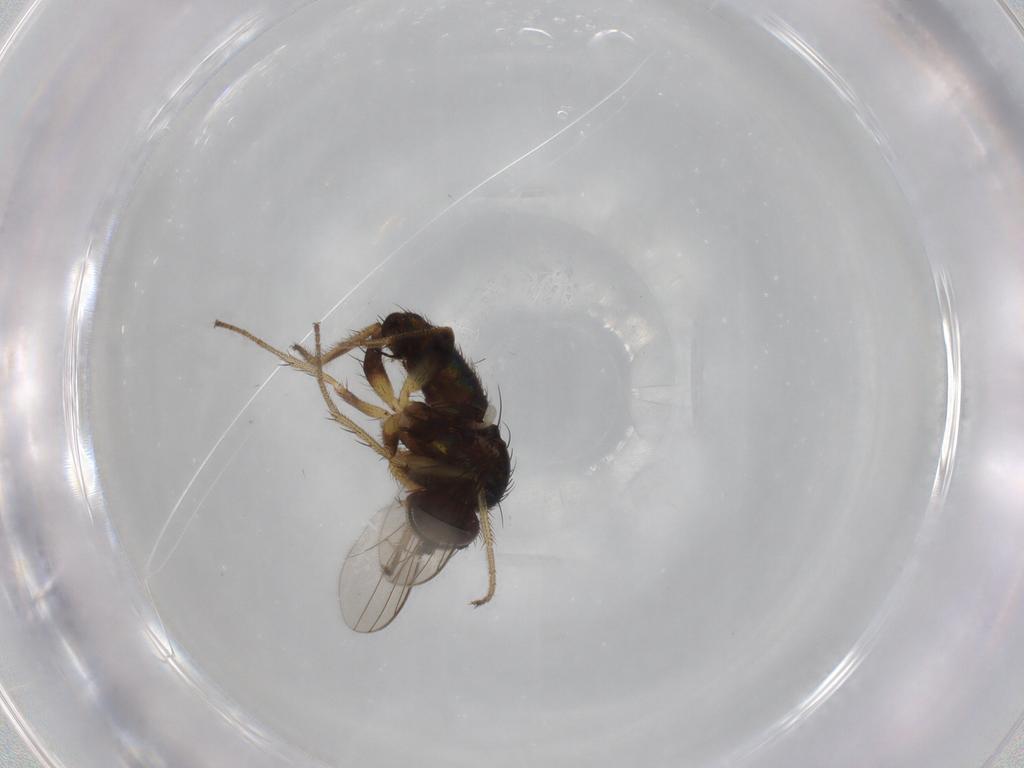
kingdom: Animalia
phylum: Arthropoda
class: Insecta
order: Diptera
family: Dolichopodidae
